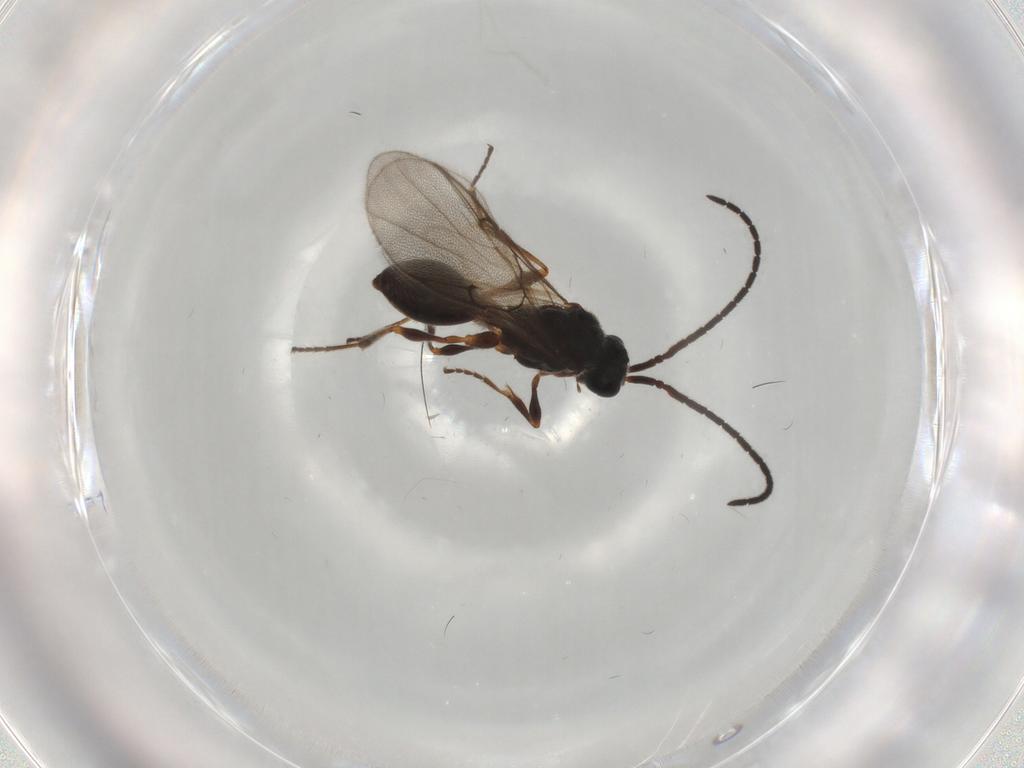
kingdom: Animalia
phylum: Arthropoda
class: Insecta
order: Hymenoptera
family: Diapriidae
